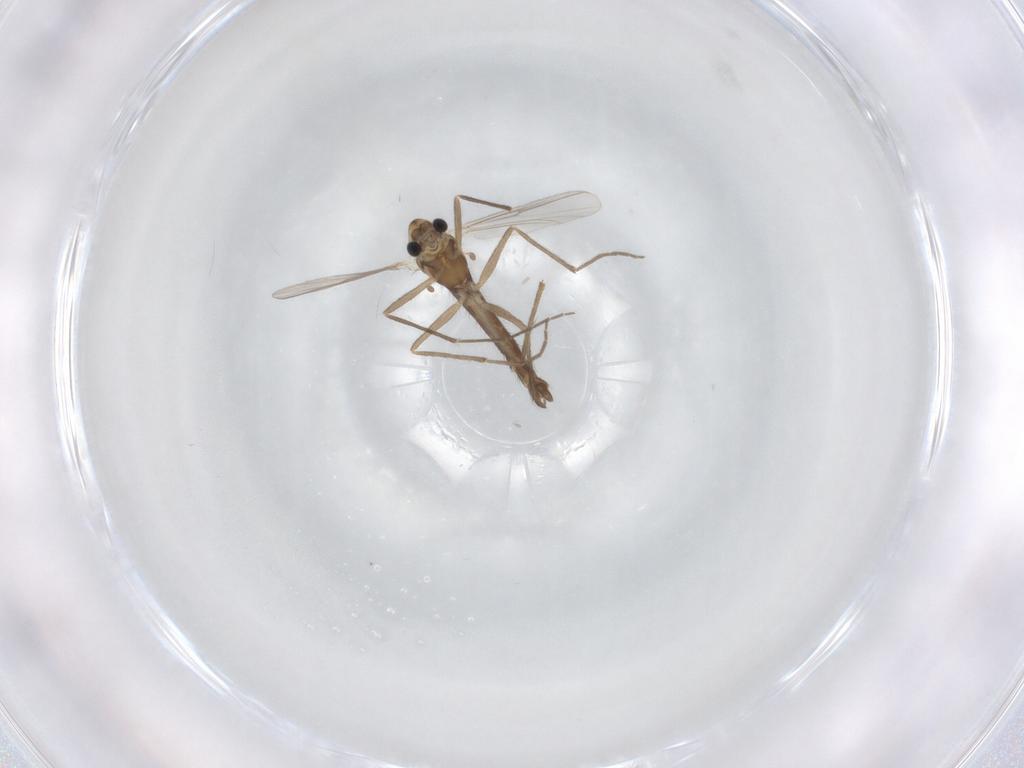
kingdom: Animalia
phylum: Arthropoda
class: Insecta
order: Diptera
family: Chironomidae
